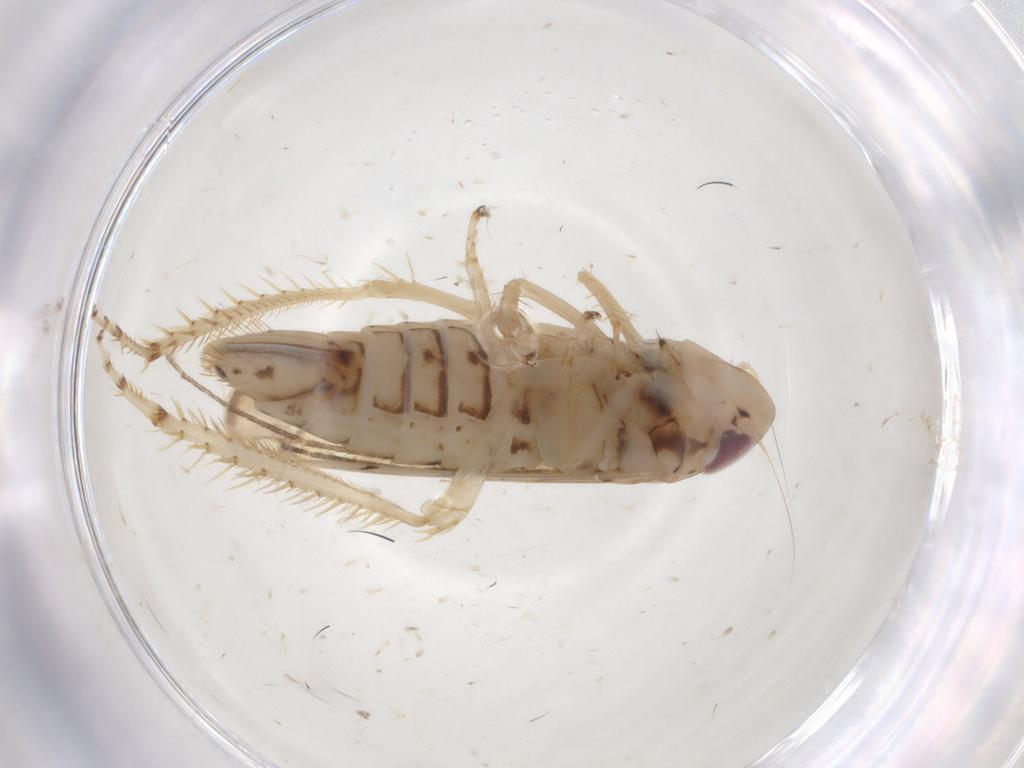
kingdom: Animalia
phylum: Arthropoda
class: Insecta
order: Hemiptera
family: Cicadellidae
